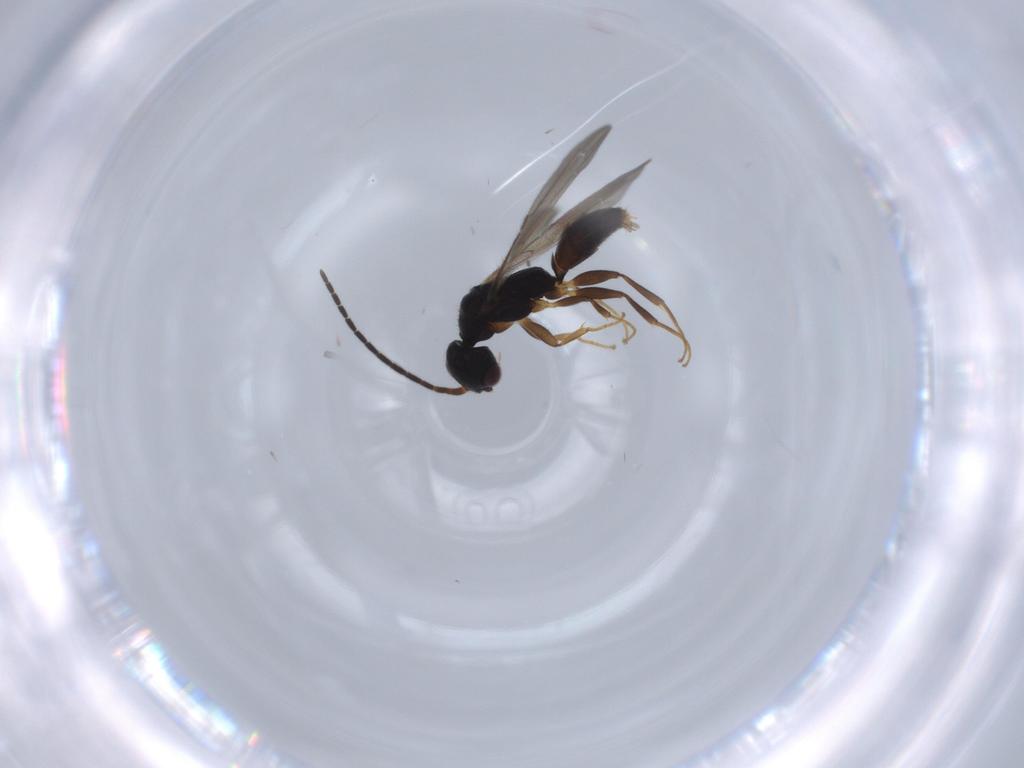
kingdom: Animalia
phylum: Arthropoda
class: Insecta
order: Hymenoptera
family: Bethylidae
